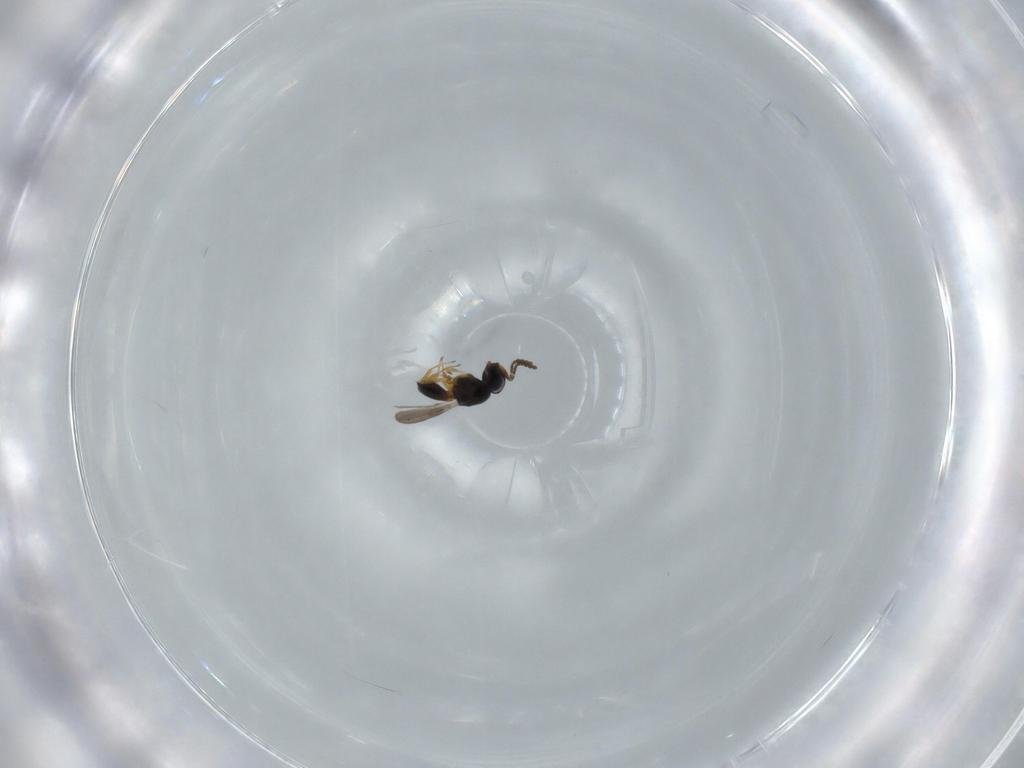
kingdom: Animalia
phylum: Arthropoda
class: Insecta
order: Hymenoptera
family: Scelionidae
